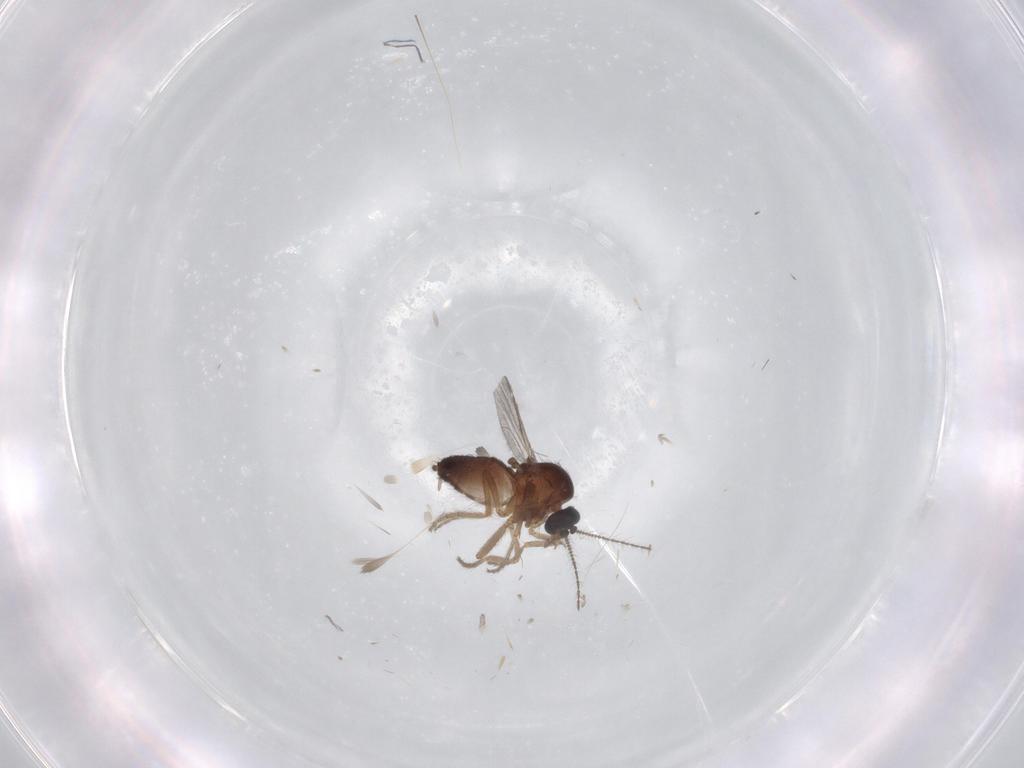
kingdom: Animalia
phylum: Arthropoda
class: Insecta
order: Diptera
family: Ceratopogonidae
